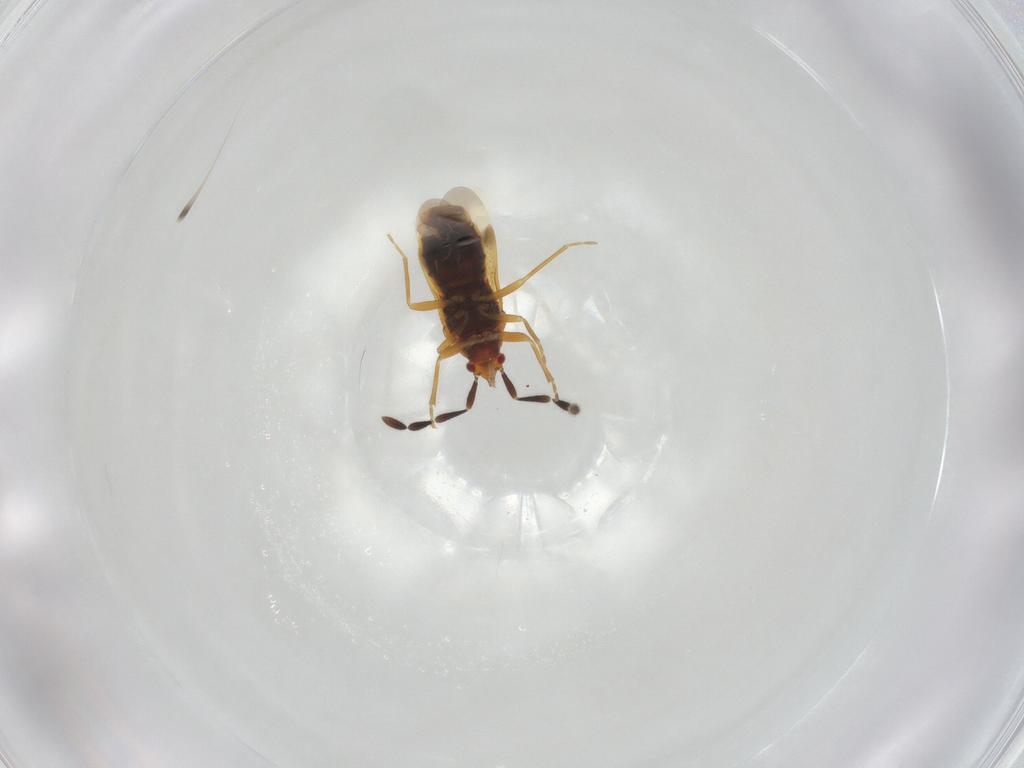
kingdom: Animalia
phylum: Arthropoda
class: Insecta
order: Hemiptera
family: Rhyparochromidae
